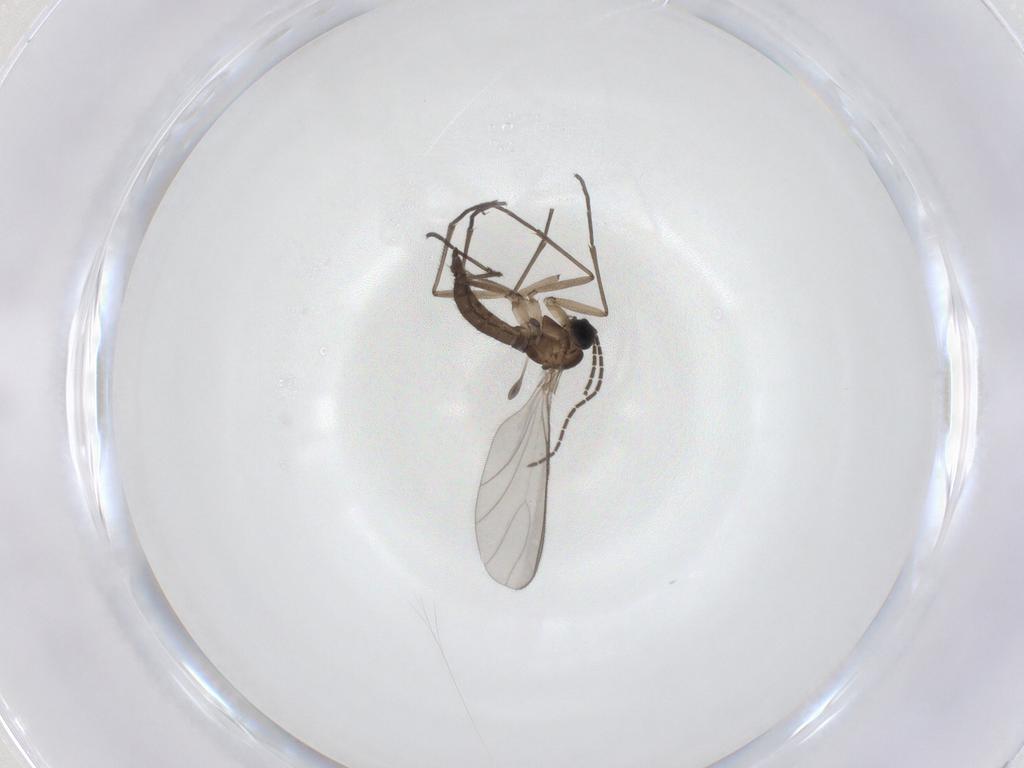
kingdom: Animalia
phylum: Arthropoda
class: Insecta
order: Diptera
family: Sciaridae
